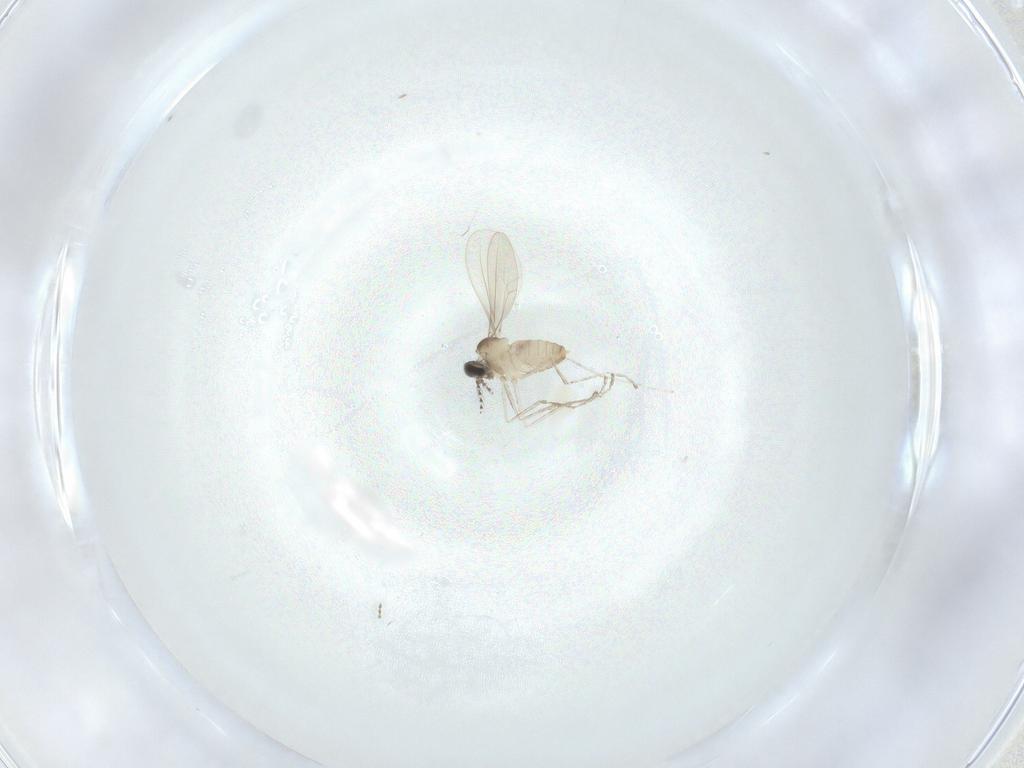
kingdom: Animalia
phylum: Arthropoda
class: Insecta
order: Diptera
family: Cecidomyiidae
